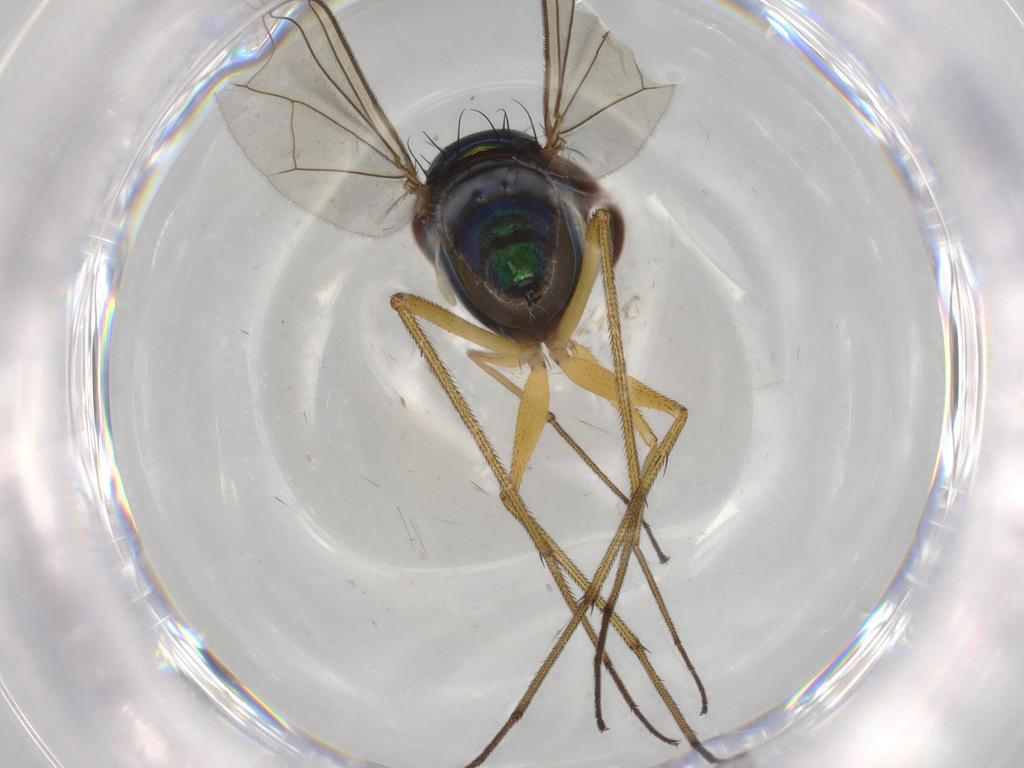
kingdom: Animalia
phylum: Arthropoda
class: Insecta
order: Diptera
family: Dolichopodidae
